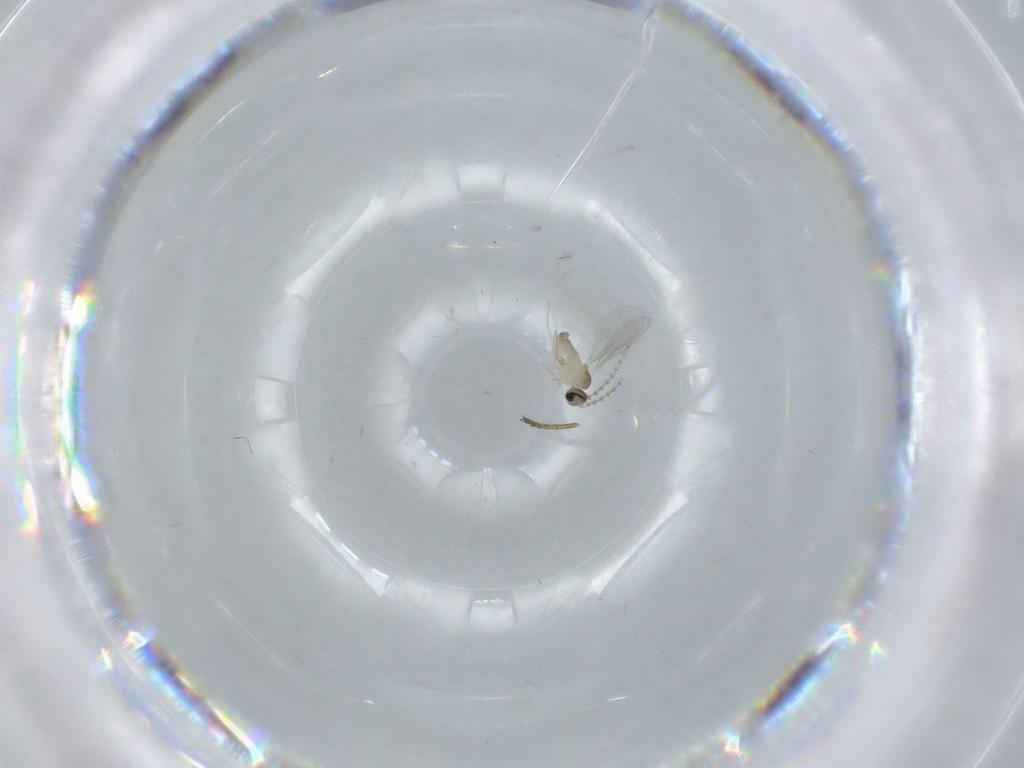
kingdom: Animalia
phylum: Arthropoda
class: Insecta
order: Diptera
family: Cecidomyiidae
